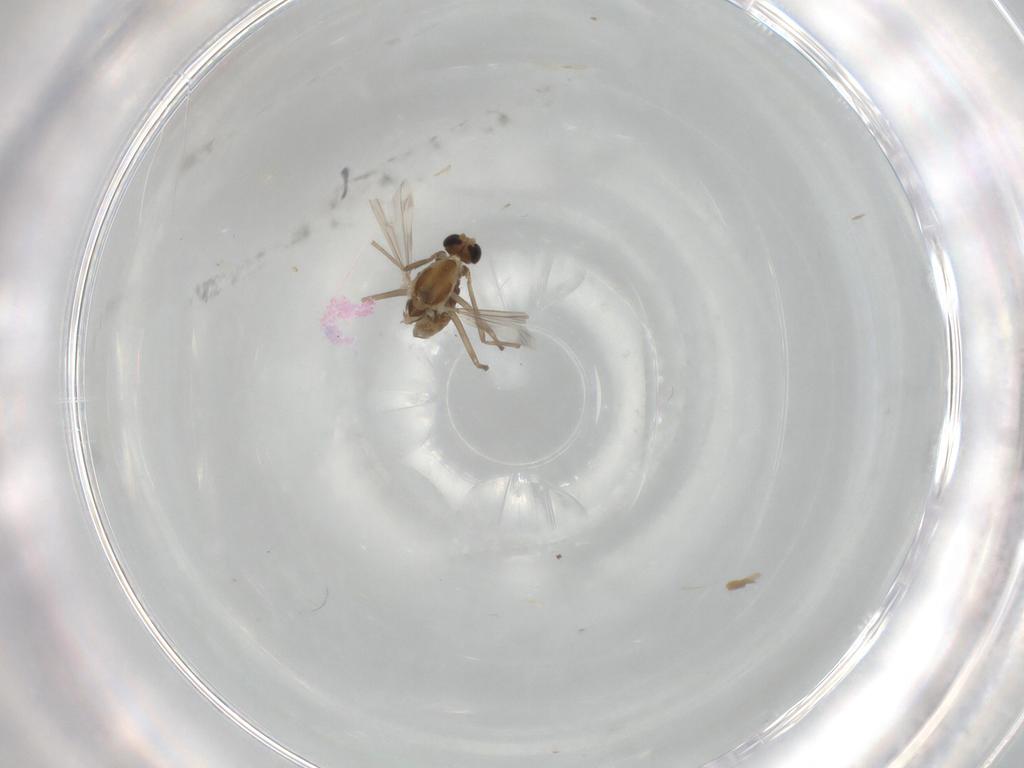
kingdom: Animalia
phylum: Arthropoda
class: Insecta
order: Diptera
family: Chironomidae
